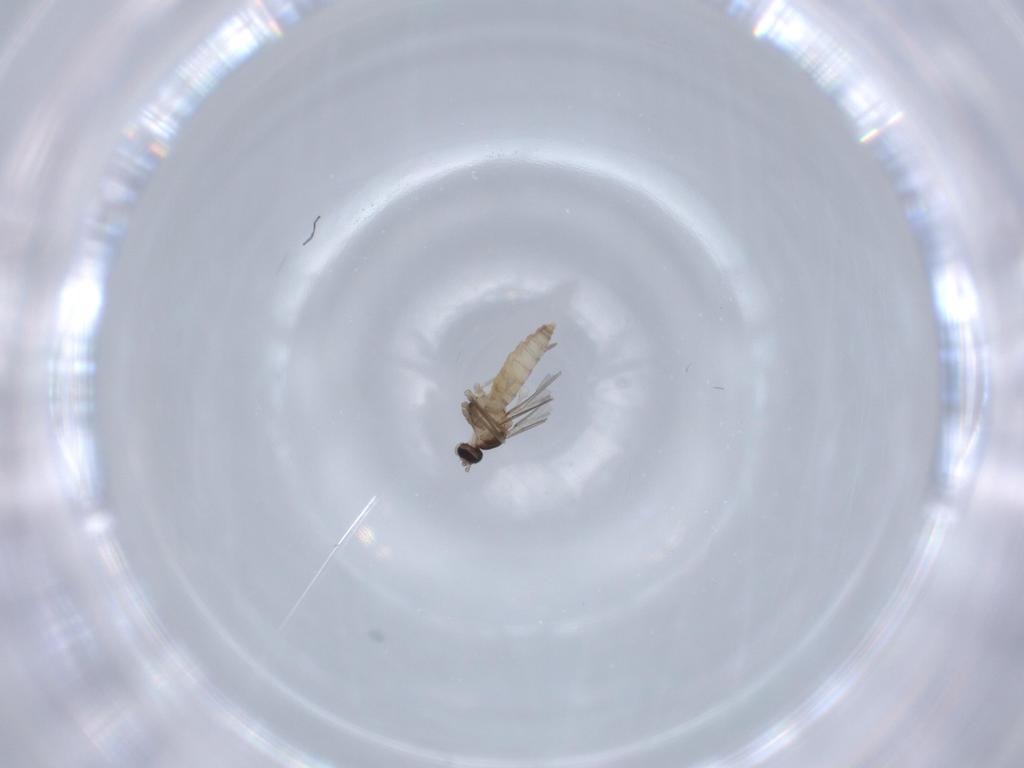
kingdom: Animalia
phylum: Arthropoda
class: Insecta
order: Diptera
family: Cecidomyiidae
